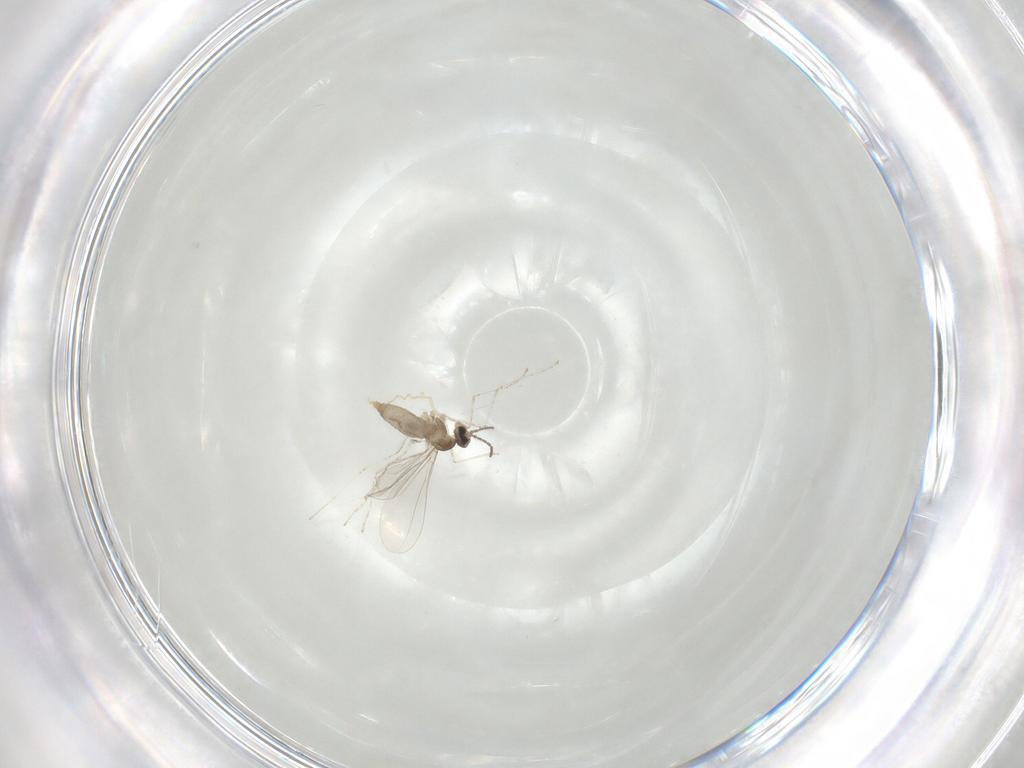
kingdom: Animalia
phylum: Arthropoda
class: Insecta
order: Diptera
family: Cecidomyiidae
